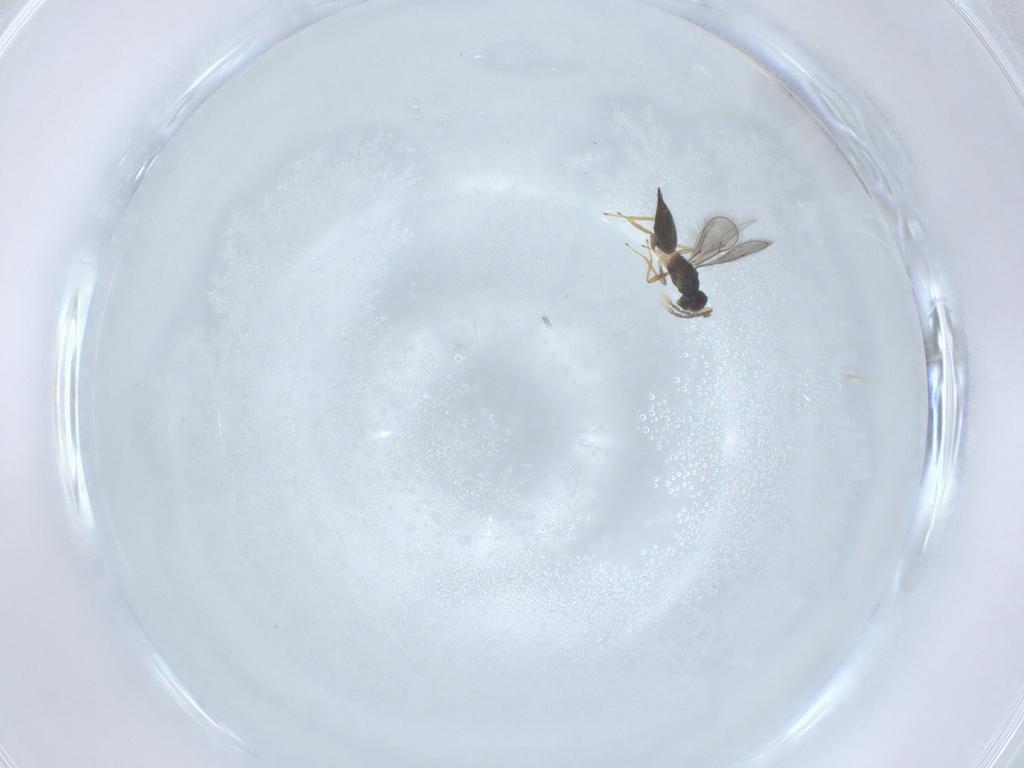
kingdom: Animalia
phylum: Arthropoda
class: Insecta
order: Hymenoptera
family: Eulophidae
